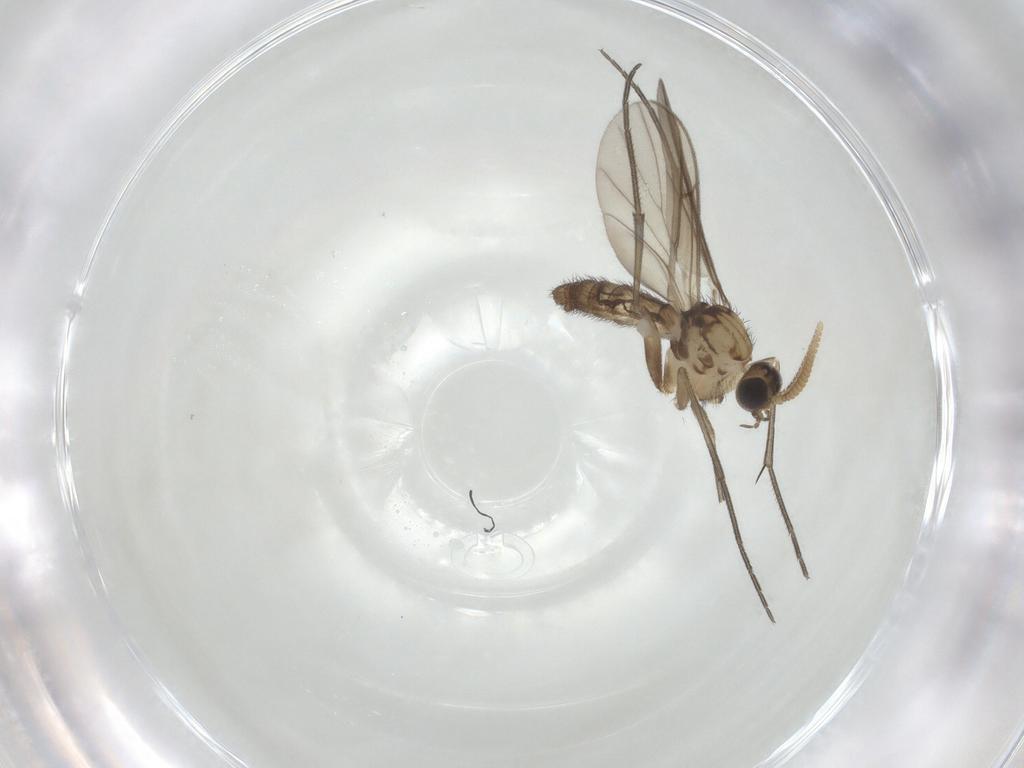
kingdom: Animalia
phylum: Arthropoda
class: Insecta
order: Diptera
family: Keroplatidae
